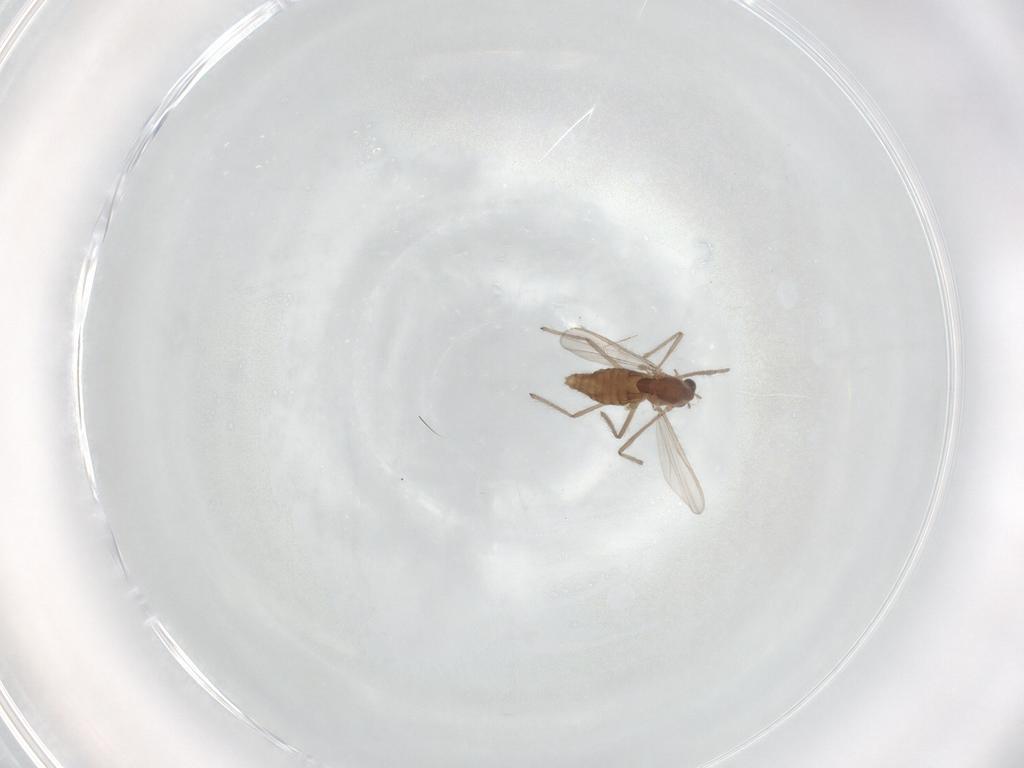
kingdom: Animalia
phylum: Arthropoda
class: Insecta
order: Diptera
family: Chironomidae
